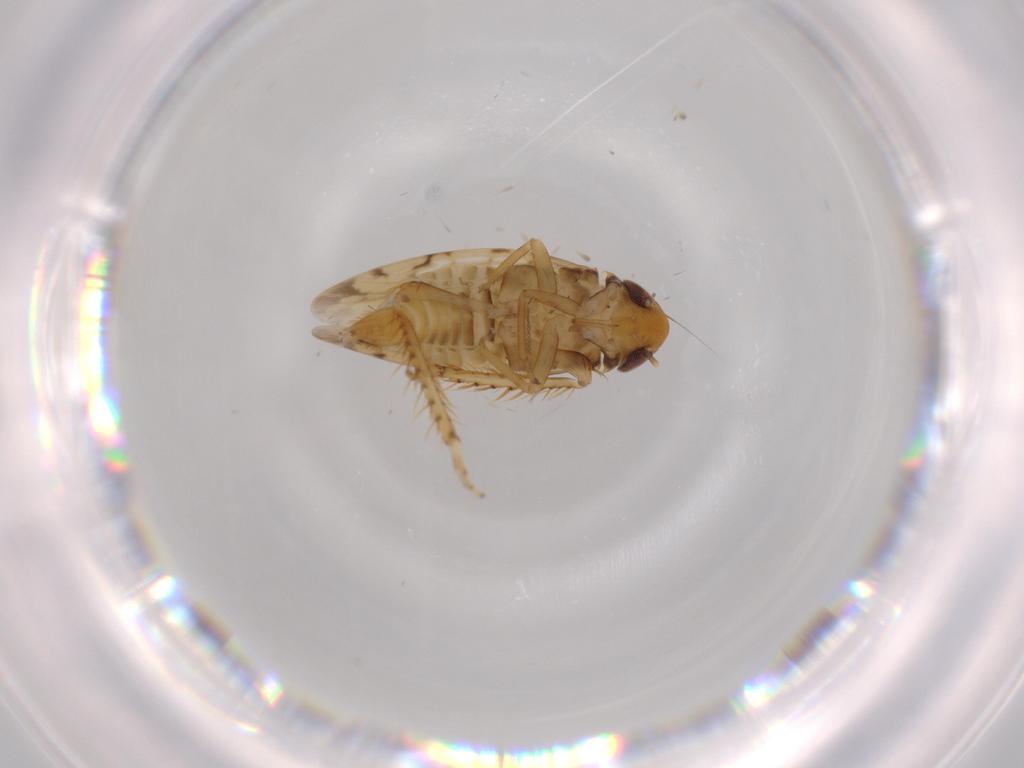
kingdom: Animalia
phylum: Arthropoda
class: Insecta
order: Hemiptera
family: Cicadellidae
